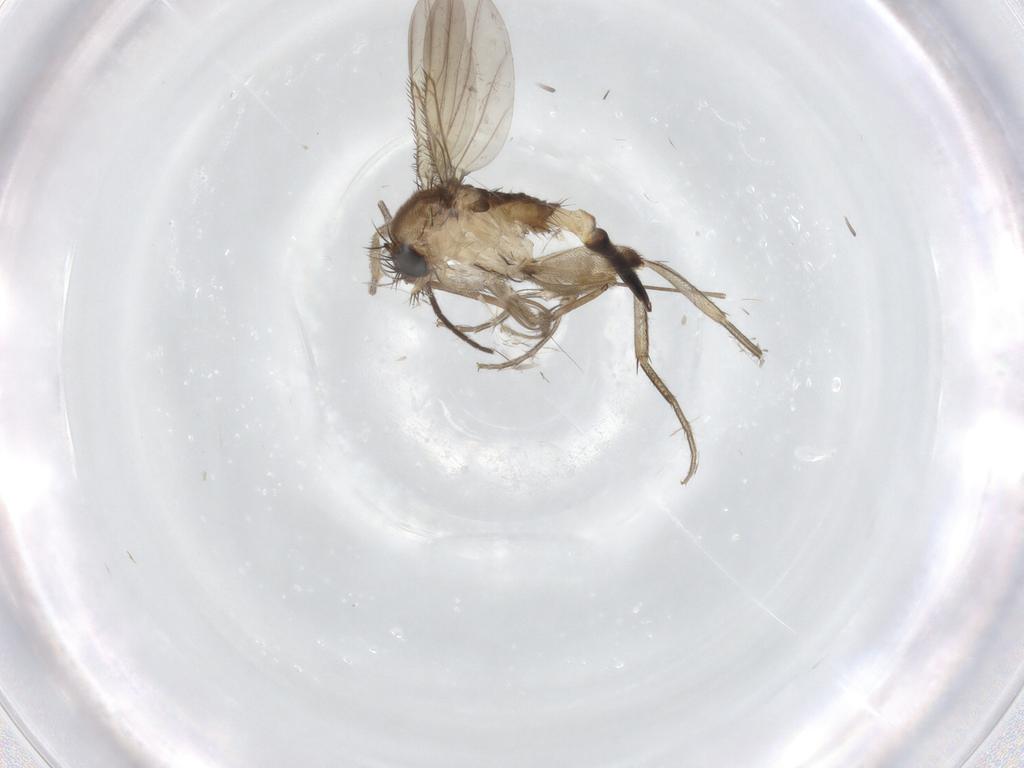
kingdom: Animalia
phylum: Arthropoda
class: Insecta
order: Diptera
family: Phoridae
